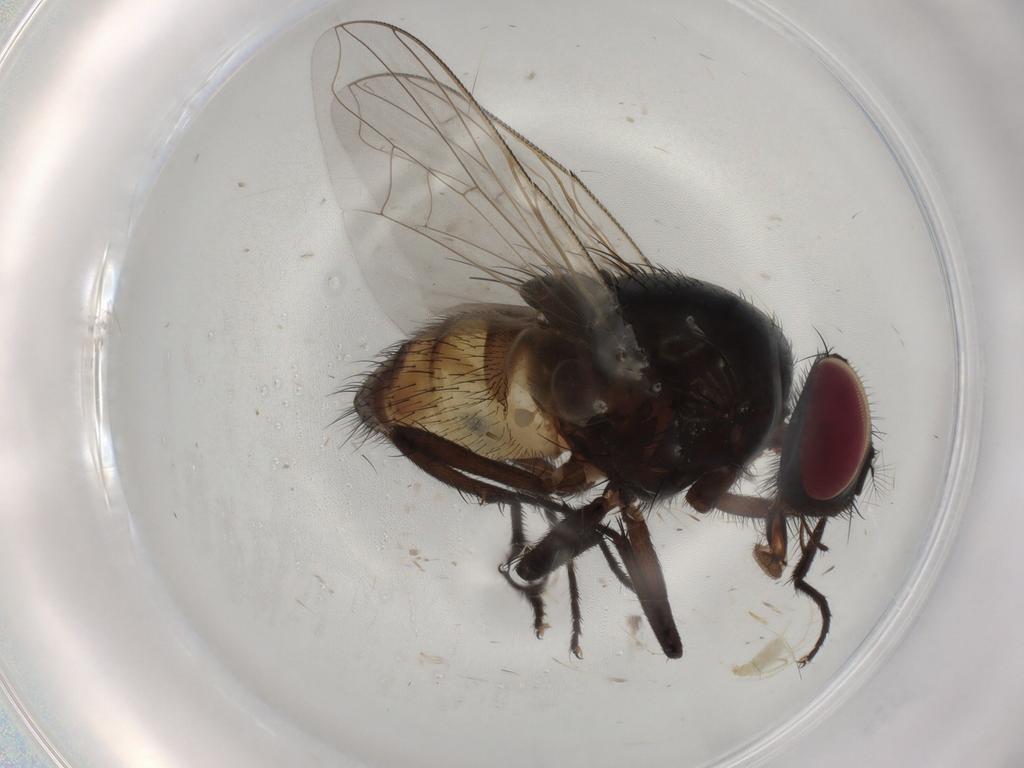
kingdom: Animalia
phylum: Arthropoda
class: Insecta
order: Diptera
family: Muscidae
